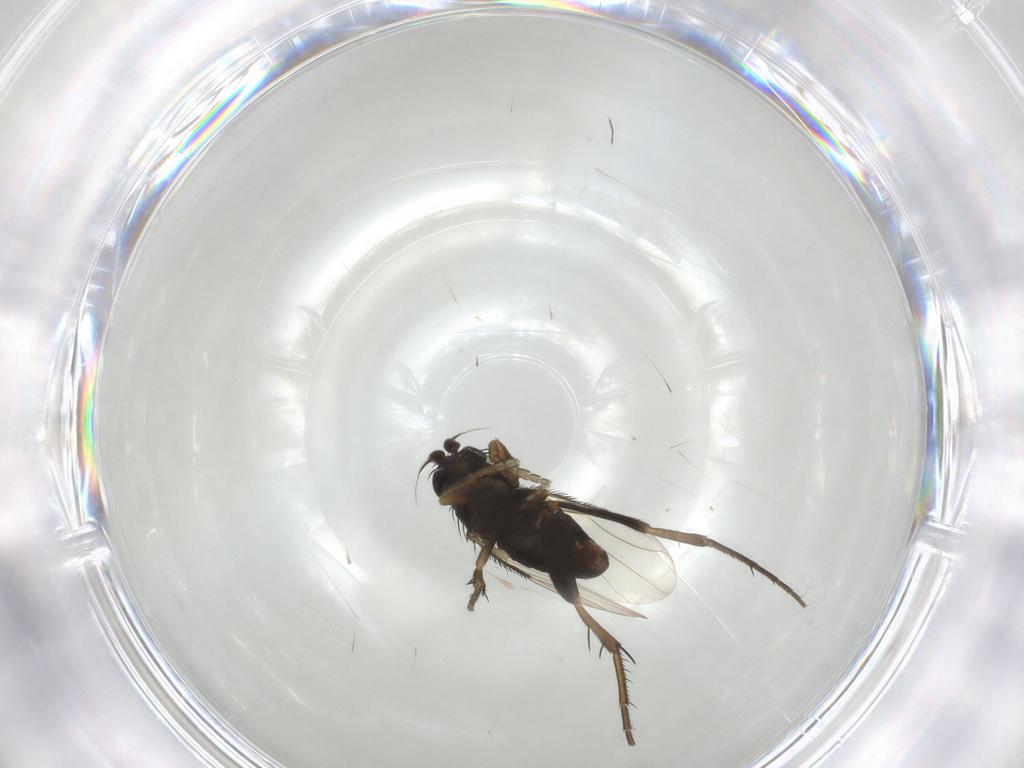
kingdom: Animalia
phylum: Arthropoda
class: Insecta
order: Diptera
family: Phoridae
